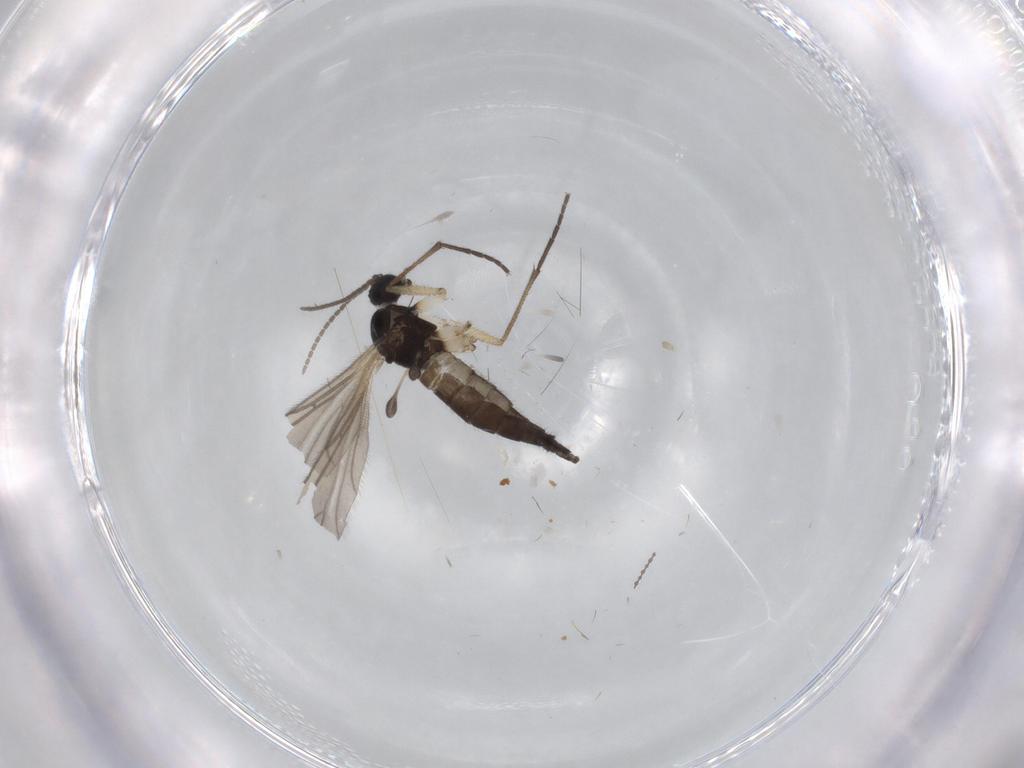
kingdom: Animalia
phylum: Arthropoda
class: Insecta
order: Diptera
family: Sciaridae
